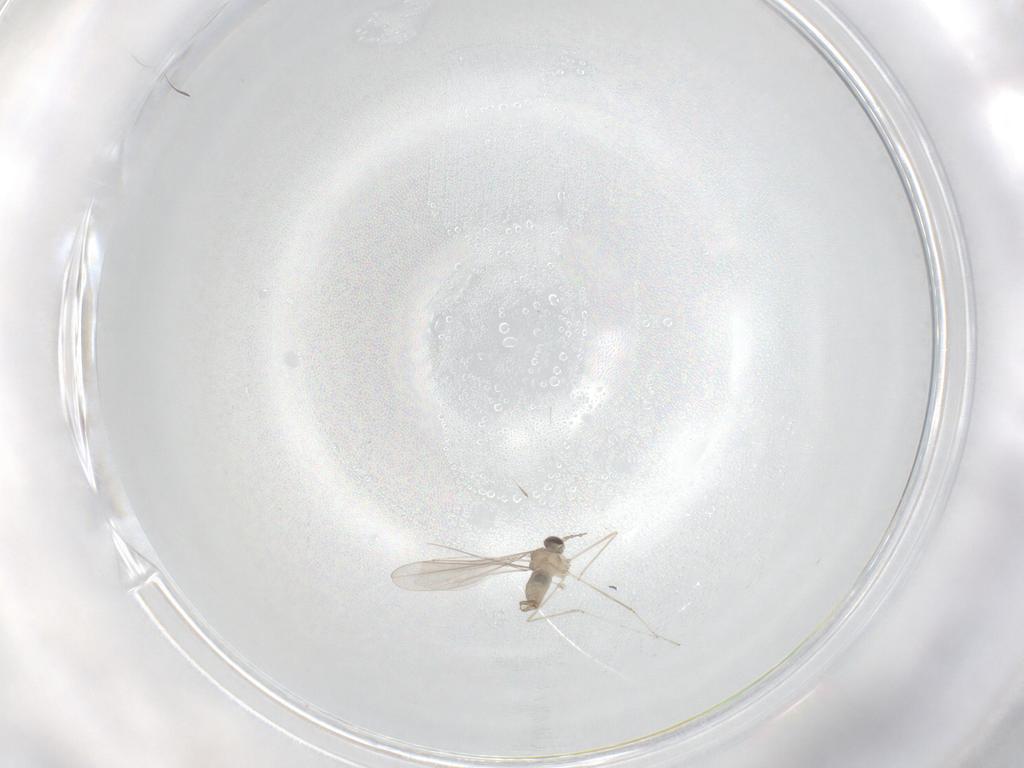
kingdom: Animalia
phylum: Arthropoda
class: Insecta
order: Diptera
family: Cecidomyiidae
